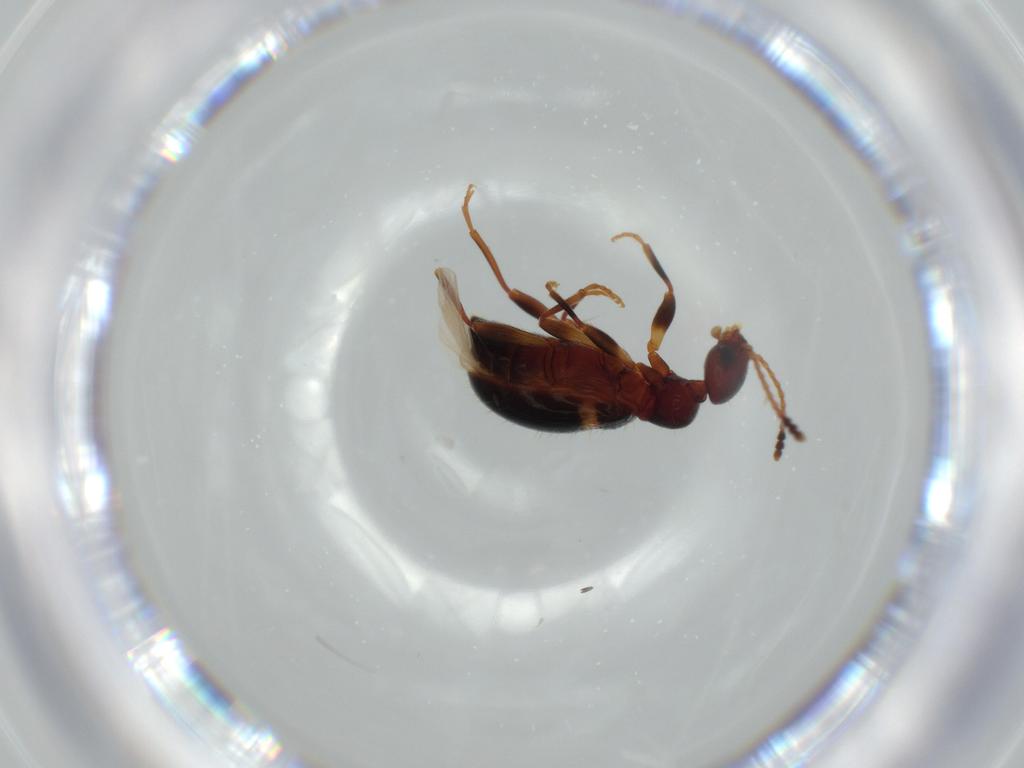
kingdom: Animalia
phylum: Arthropoda
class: Insecta
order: Coleoptera
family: Anthicidae
